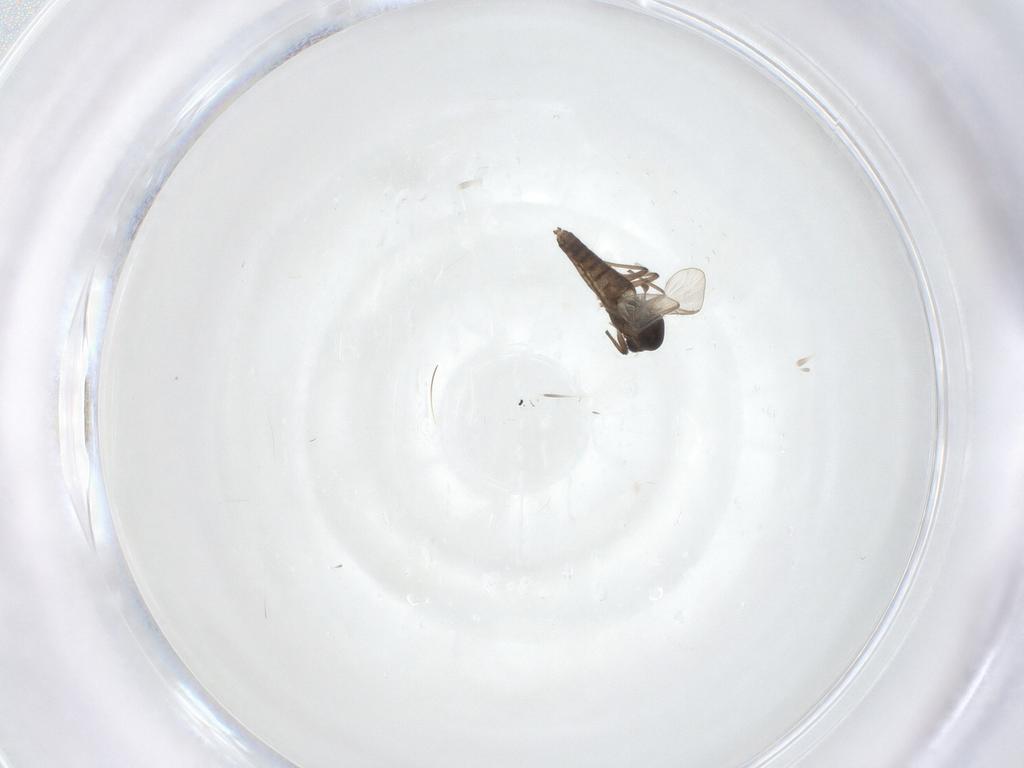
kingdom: Animalia
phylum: Arthropoda
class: Insecta
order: Diptera
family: Chironomidae
